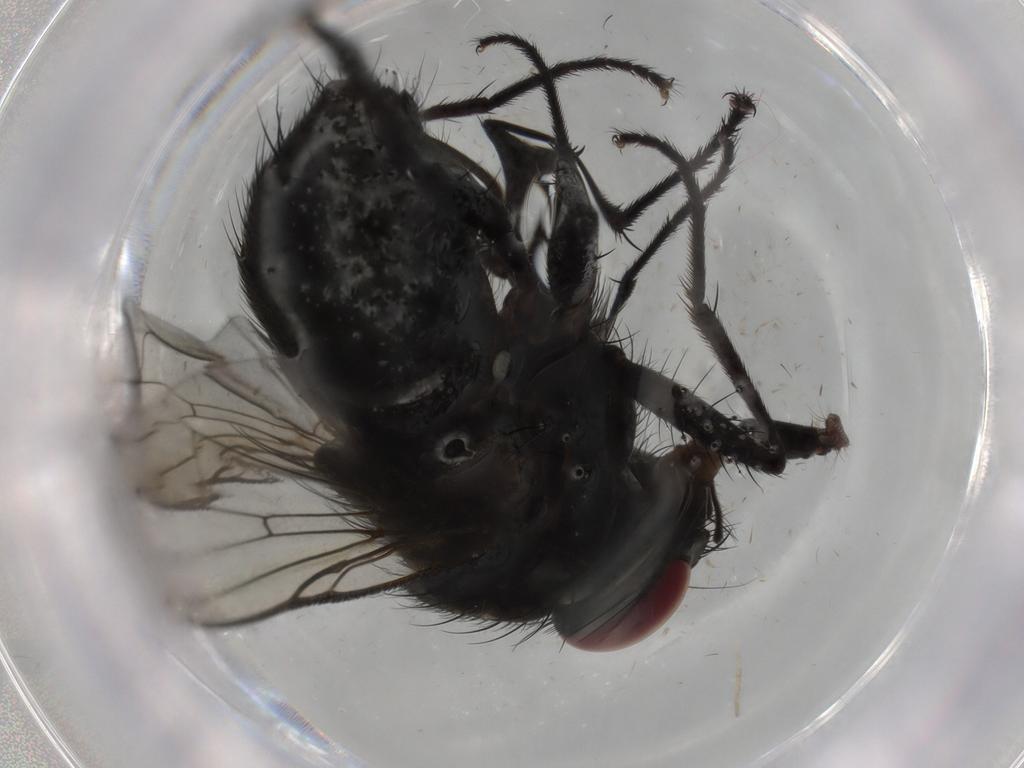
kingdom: Animalia
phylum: Arthropoda
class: Insecta
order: Diptera
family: Muscidae
